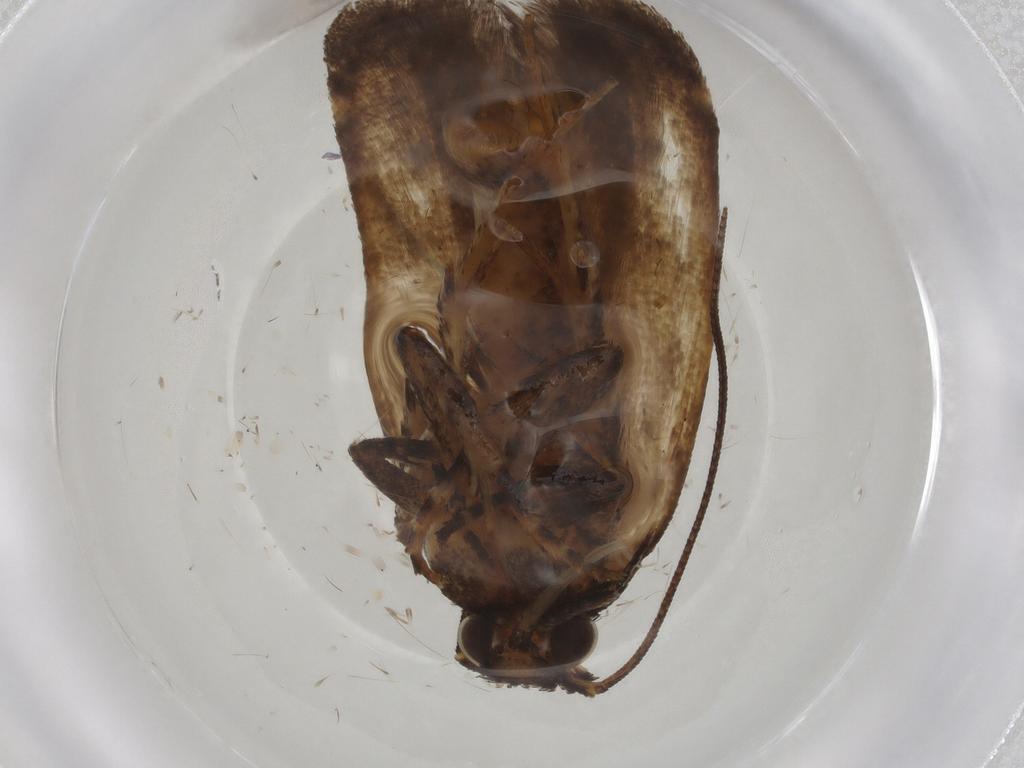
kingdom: Animalia
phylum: Arthropoda
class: Insecta
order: Lepidoptera
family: Gelechiidae
